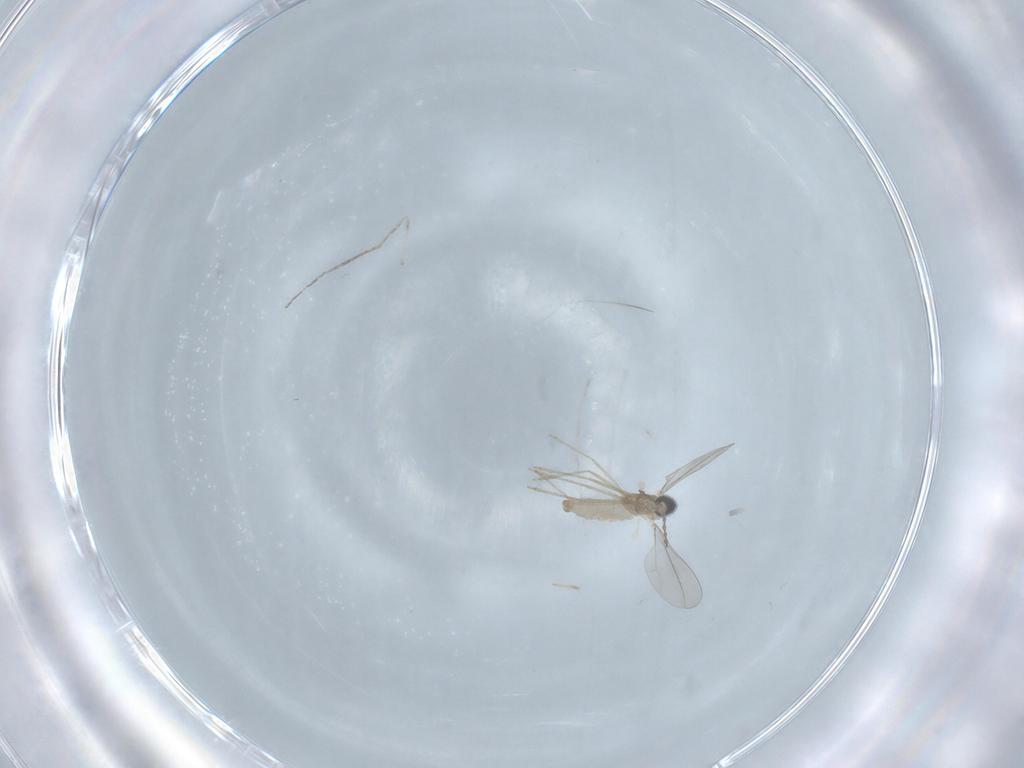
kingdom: Animalia
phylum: Arthropoda
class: Insecta
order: Diptera
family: Chironomidae
